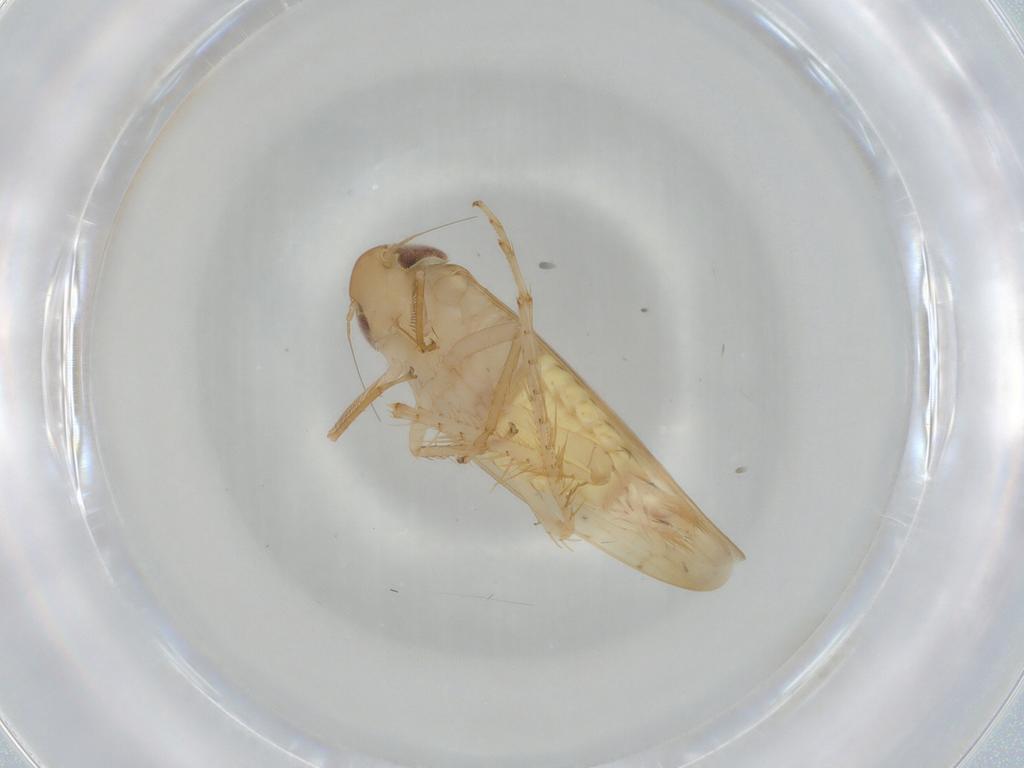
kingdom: Animalia
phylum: Arthropoda
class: Insecta
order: Hemiptera
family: Cicadellidae
